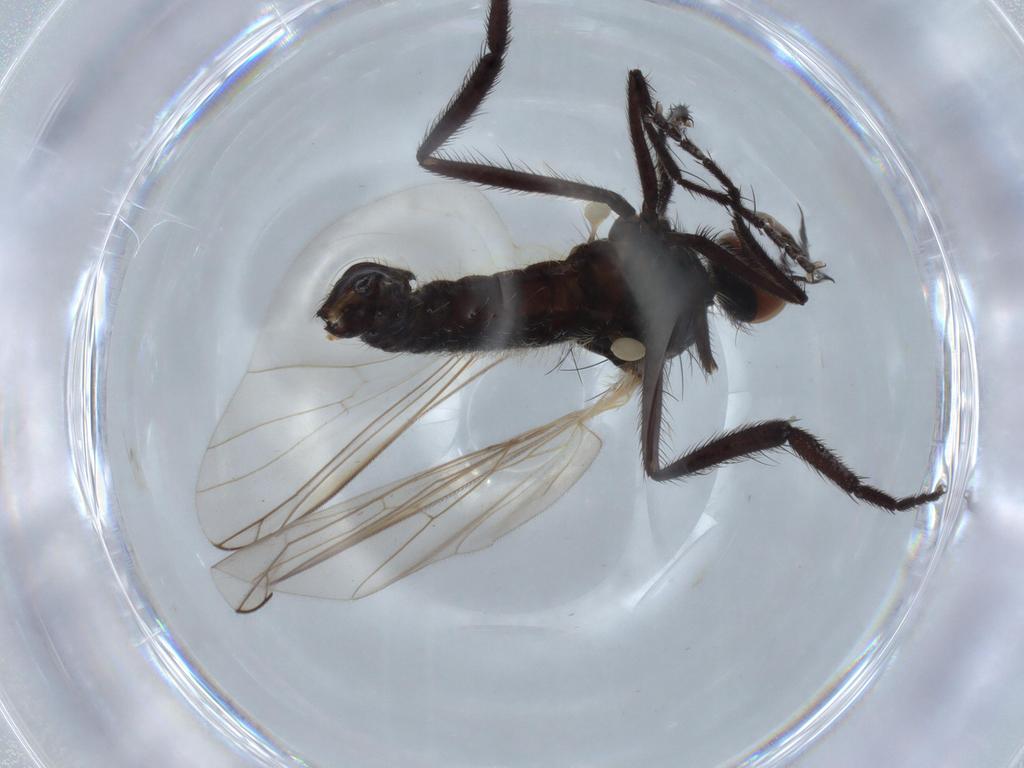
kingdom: Animalia
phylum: Arthropoda
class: Insecta
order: Diptera
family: Empididae
